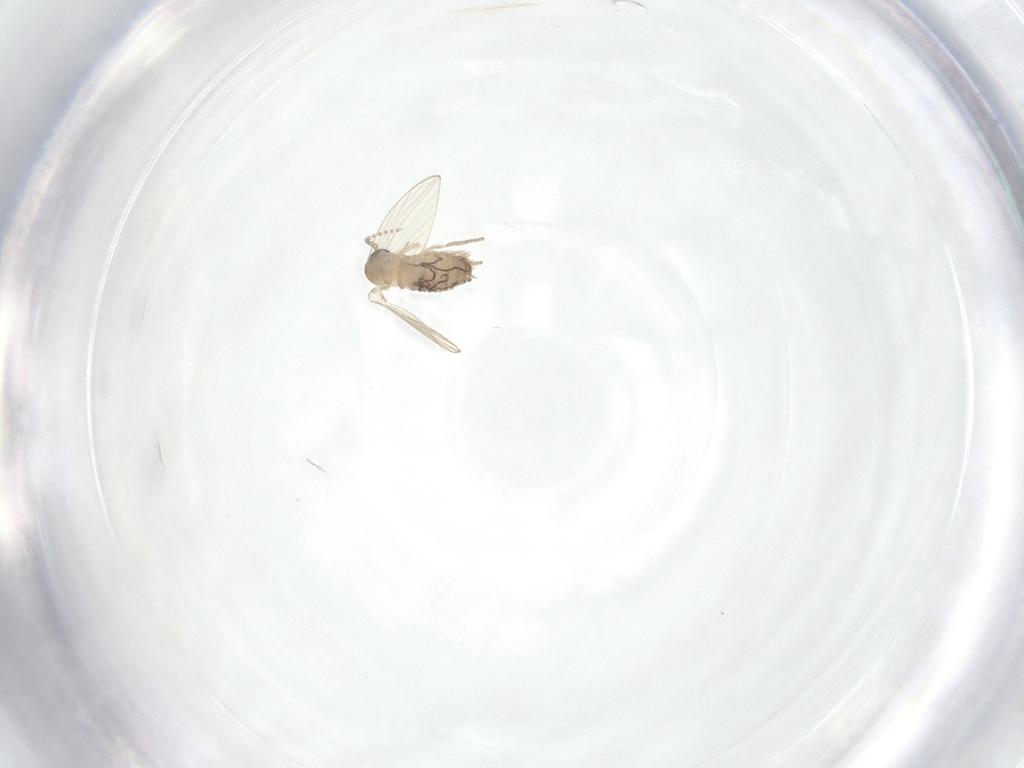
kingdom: Animalia
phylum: Arthropoda
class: Insecta
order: Diptera
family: Psychodidae
